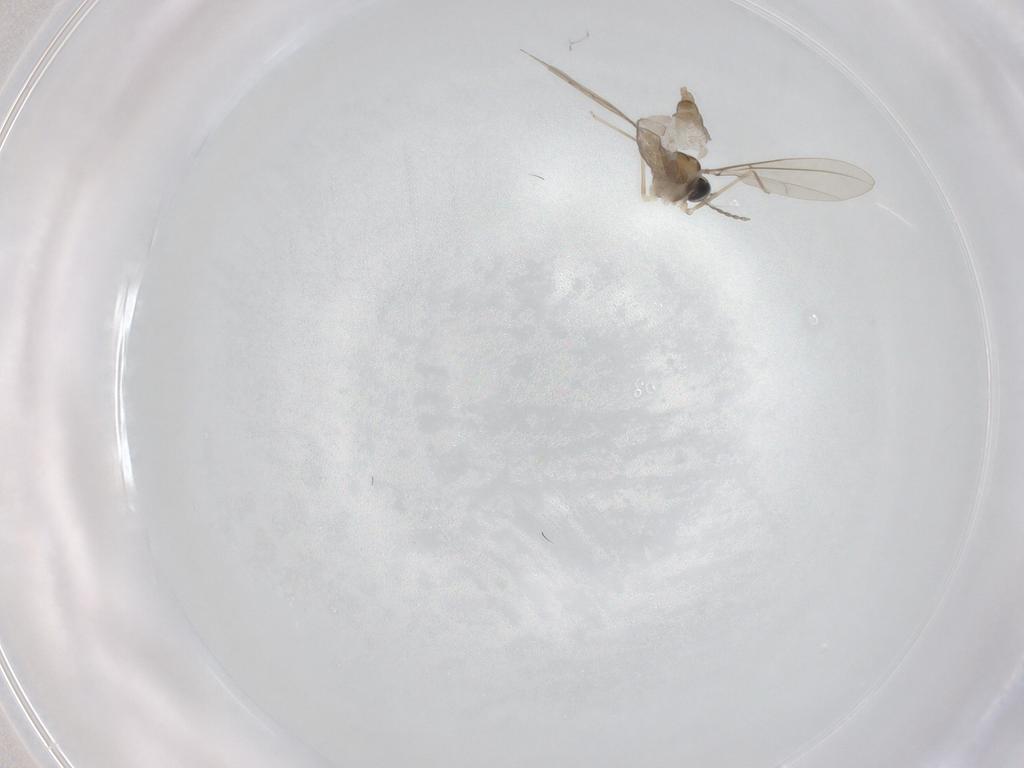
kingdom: Animalia
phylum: Arthropoda
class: Insecta
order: Diptera
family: Cecidomyiidae
